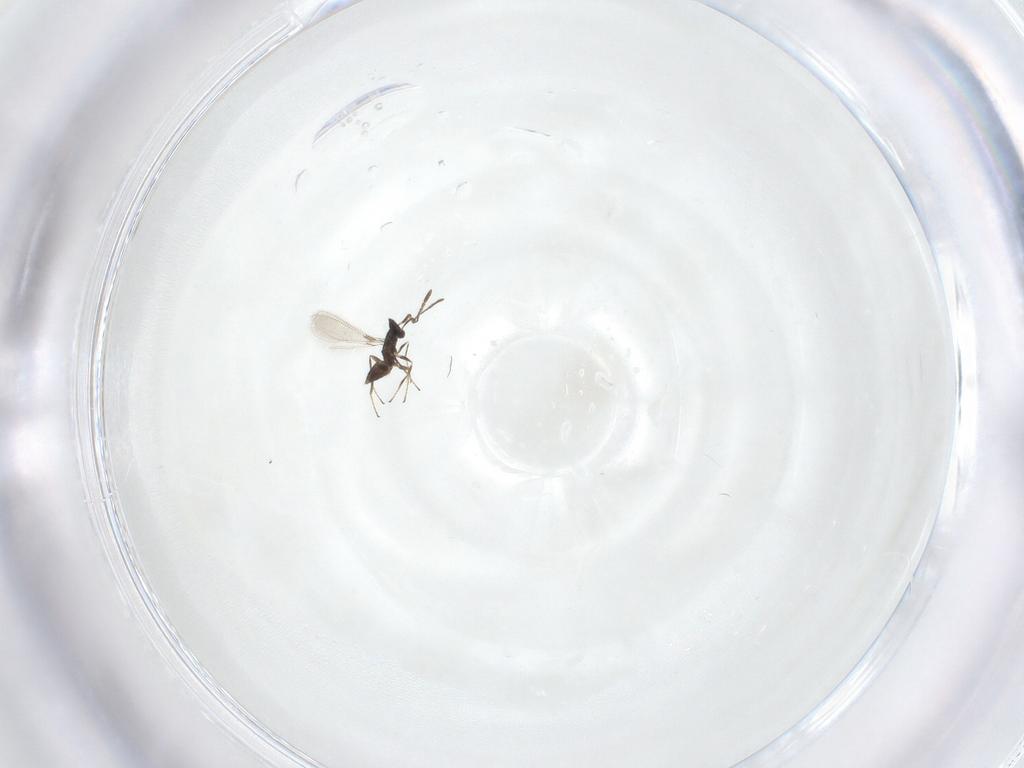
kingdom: Animalia
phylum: Arthropoda
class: Insecta
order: Hymenoptera
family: Mymaridae
